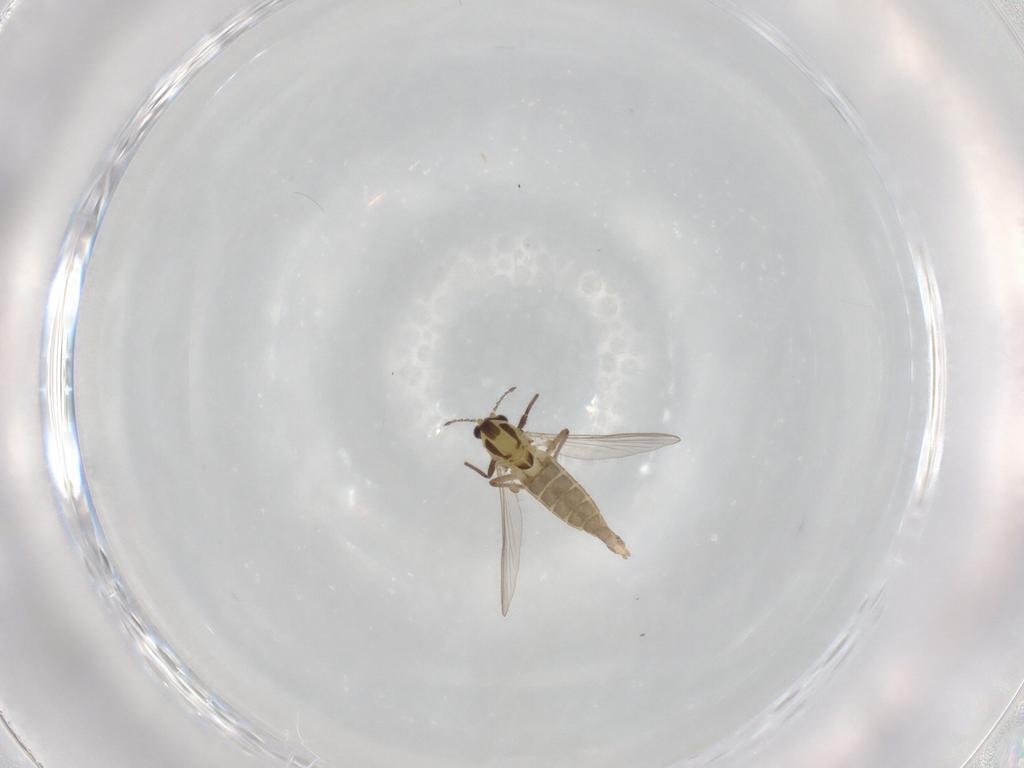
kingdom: Animalia
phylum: Arthropoda
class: Insecta
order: Diptera
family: Chironomidae
